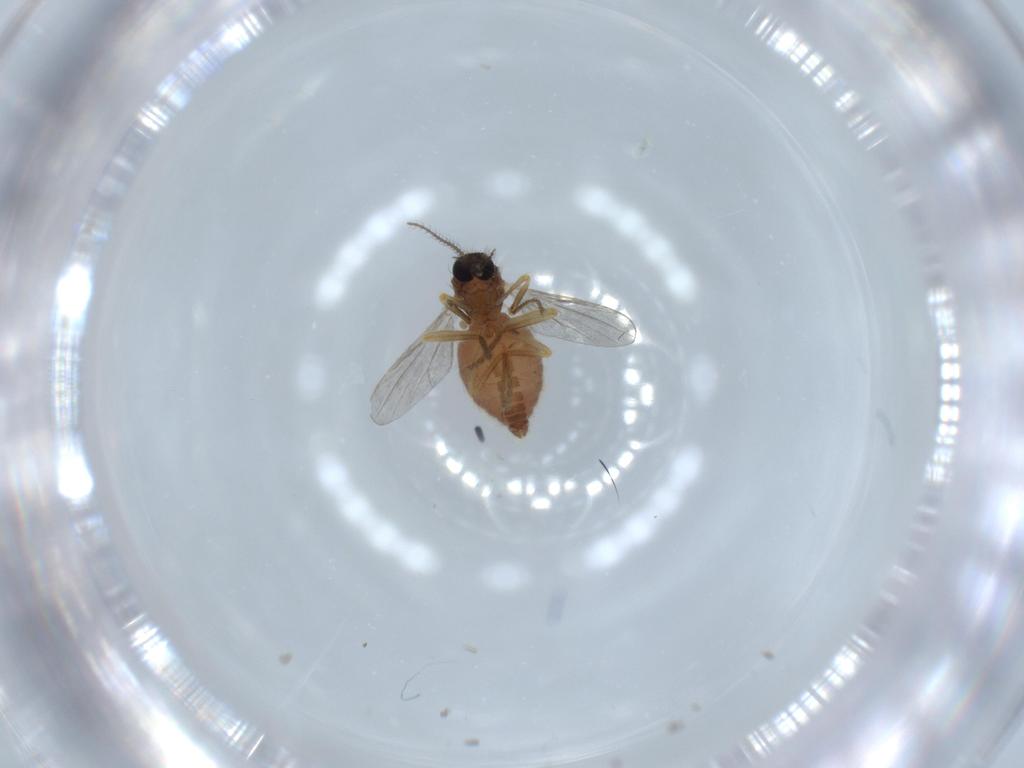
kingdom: Animalia
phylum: Arthropoda
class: Insecta
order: Diptera
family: Ceratopogonidae
